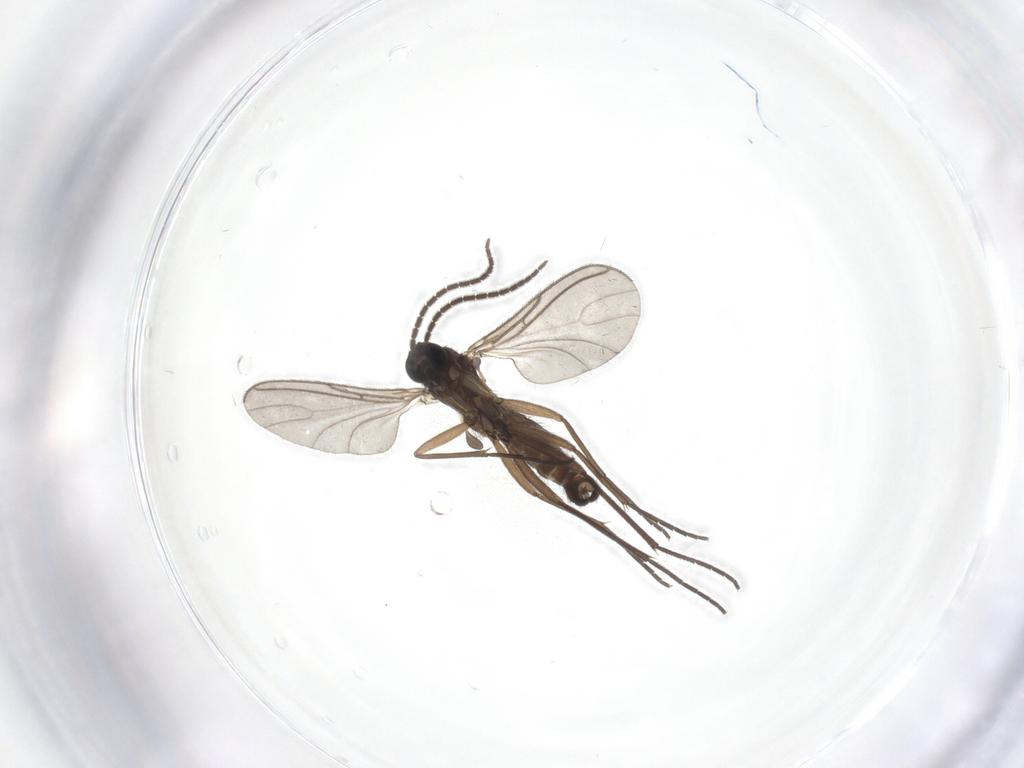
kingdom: Animalia
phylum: Arthropoda
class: Insecta
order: Diptera
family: Sciaridae
